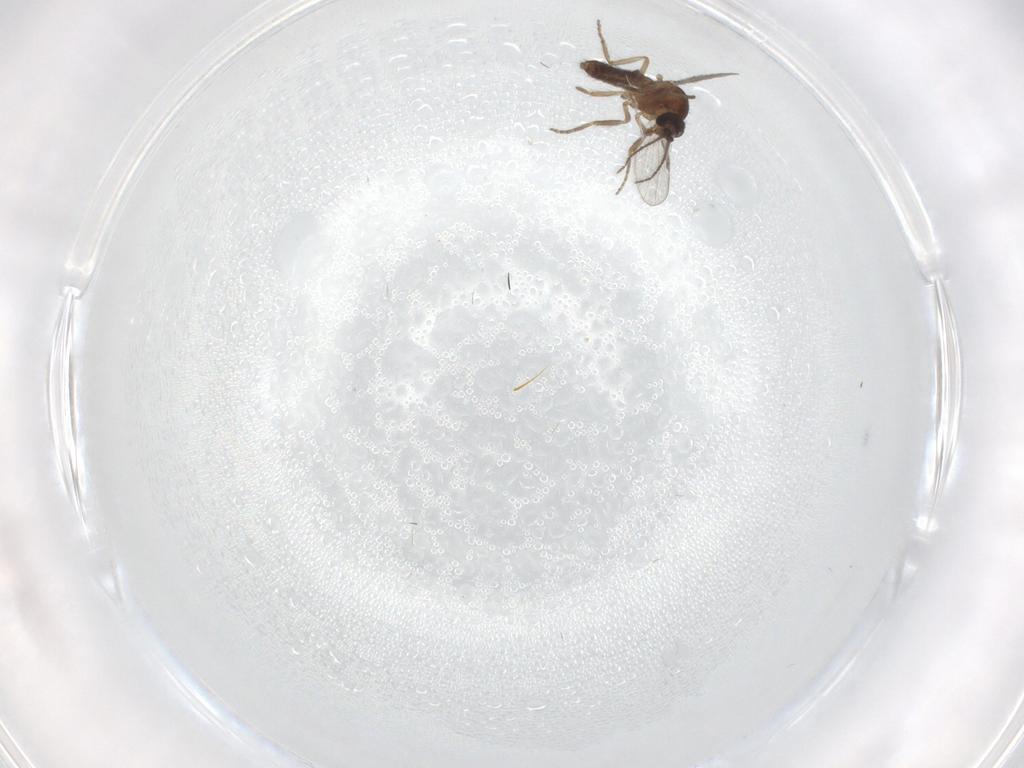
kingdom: Animalia
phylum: Arthropoda
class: Insecta
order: Diptera
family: Ceratopogonidae
